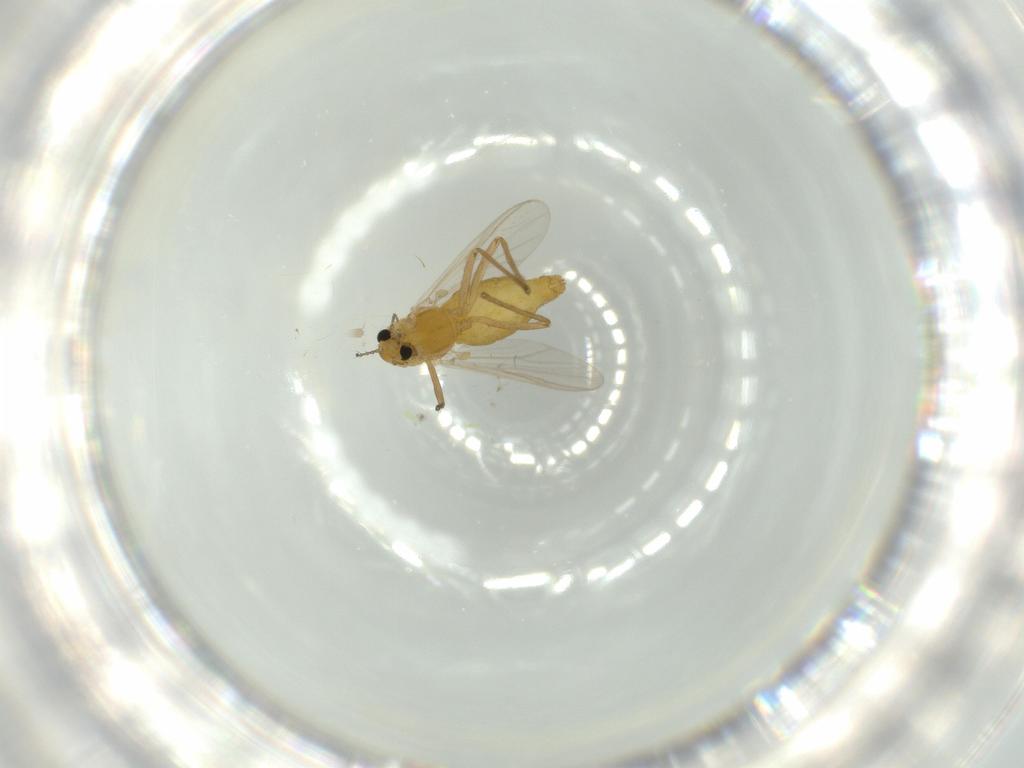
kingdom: Animalia
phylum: Arthropoda
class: Insecta
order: Diptera
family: Chironomidae
